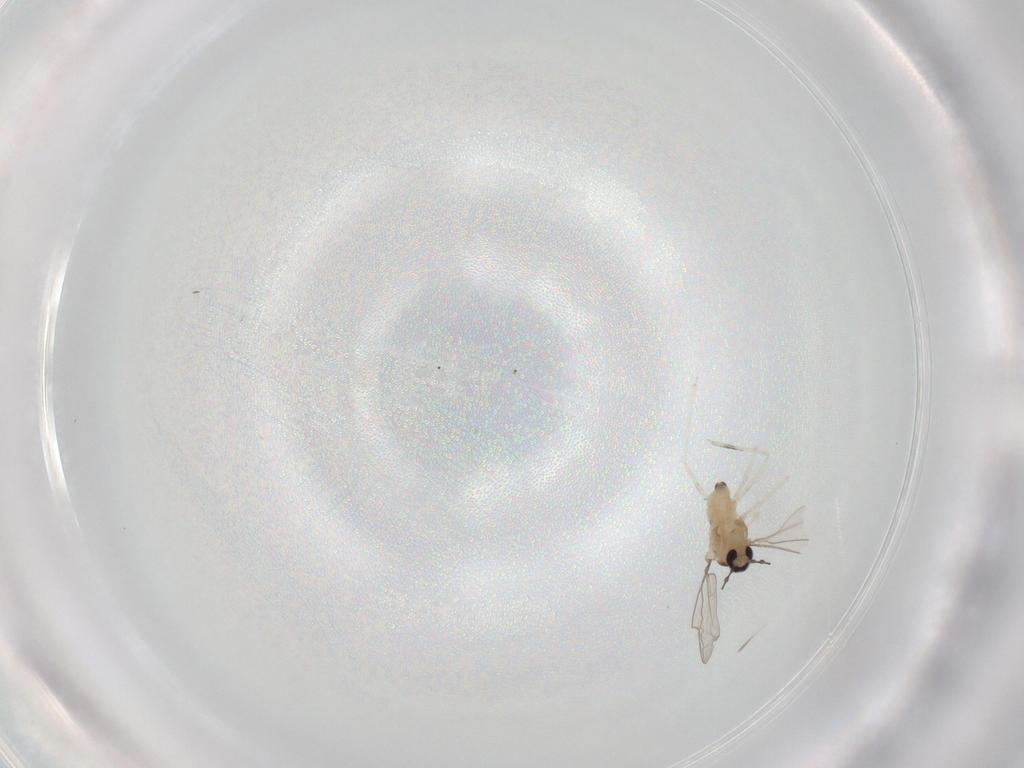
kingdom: Animalia
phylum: Arthropoda
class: Insecta
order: Diptera
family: Cecidomyiidae
